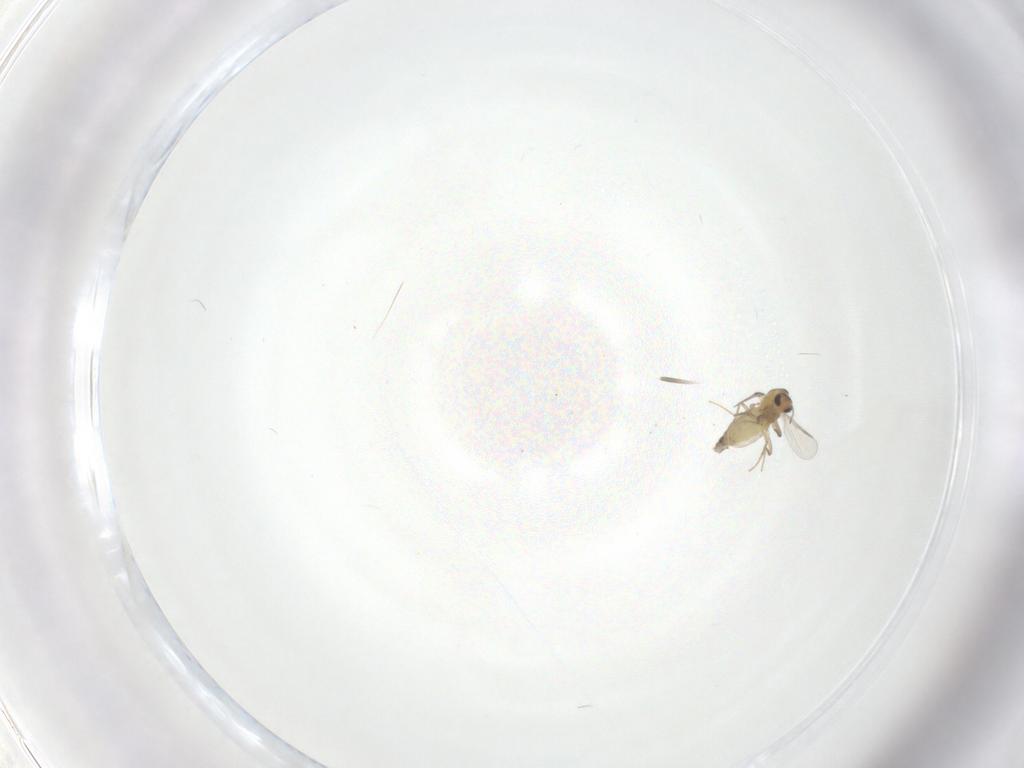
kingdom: Animalia
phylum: Arthropoda
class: Insecta
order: Diptera
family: Chironomidae
